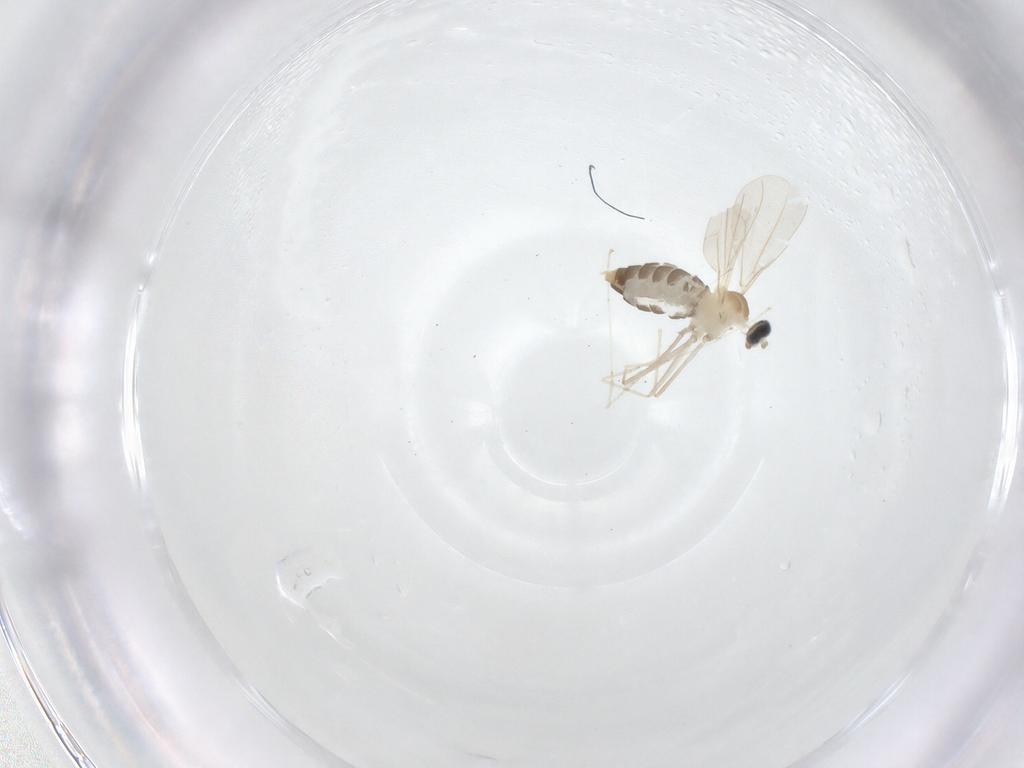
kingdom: Animalia
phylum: Arthropoda
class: Insecta
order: Diptera
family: Cecidomyiidae
